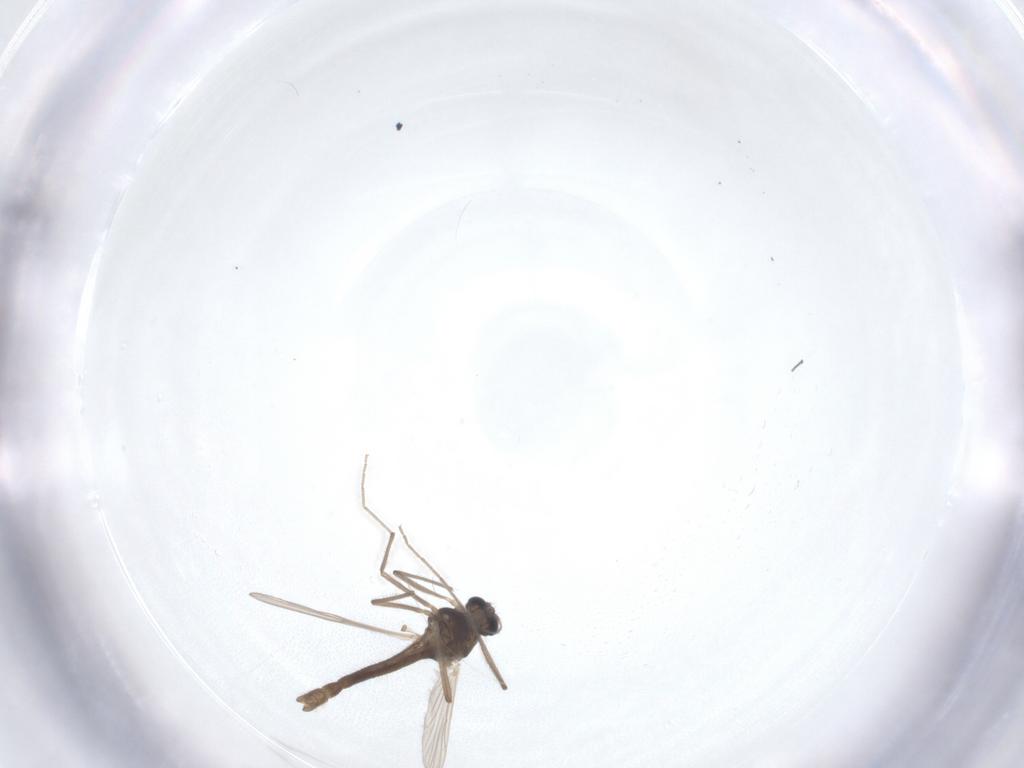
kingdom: Animalia
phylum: Arthropoda
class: Insecta
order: Diptera
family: Chironomidae
